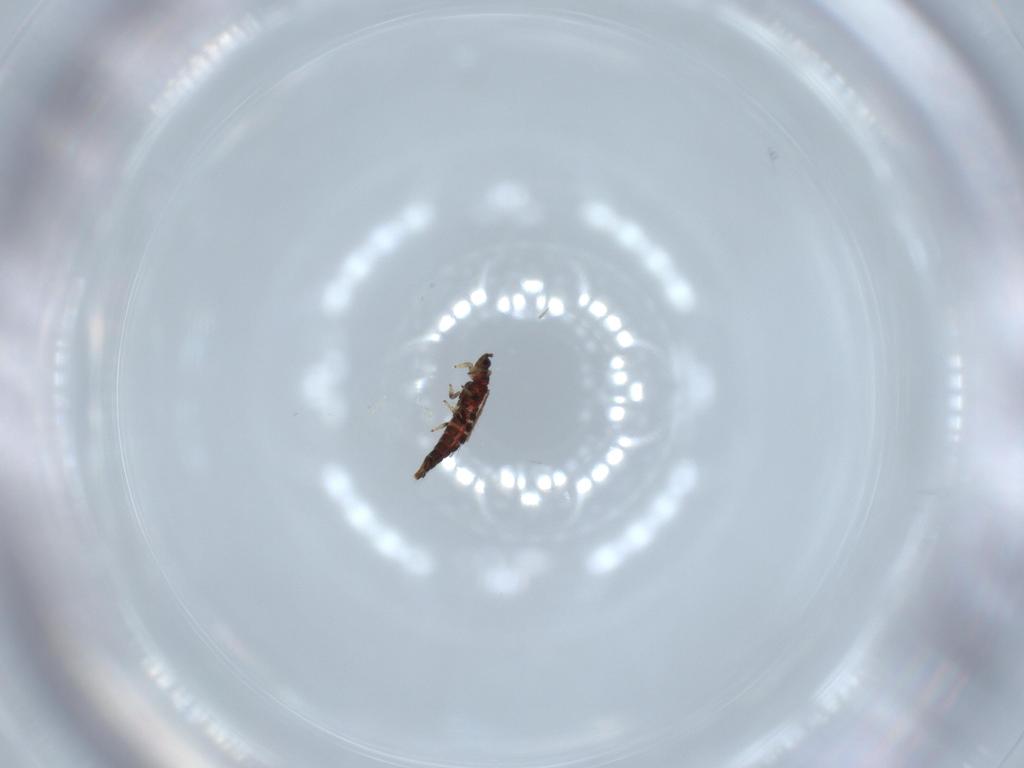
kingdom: Animalia
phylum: Arthropoda
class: Insecta
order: Thysanoptera
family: Thripidae
